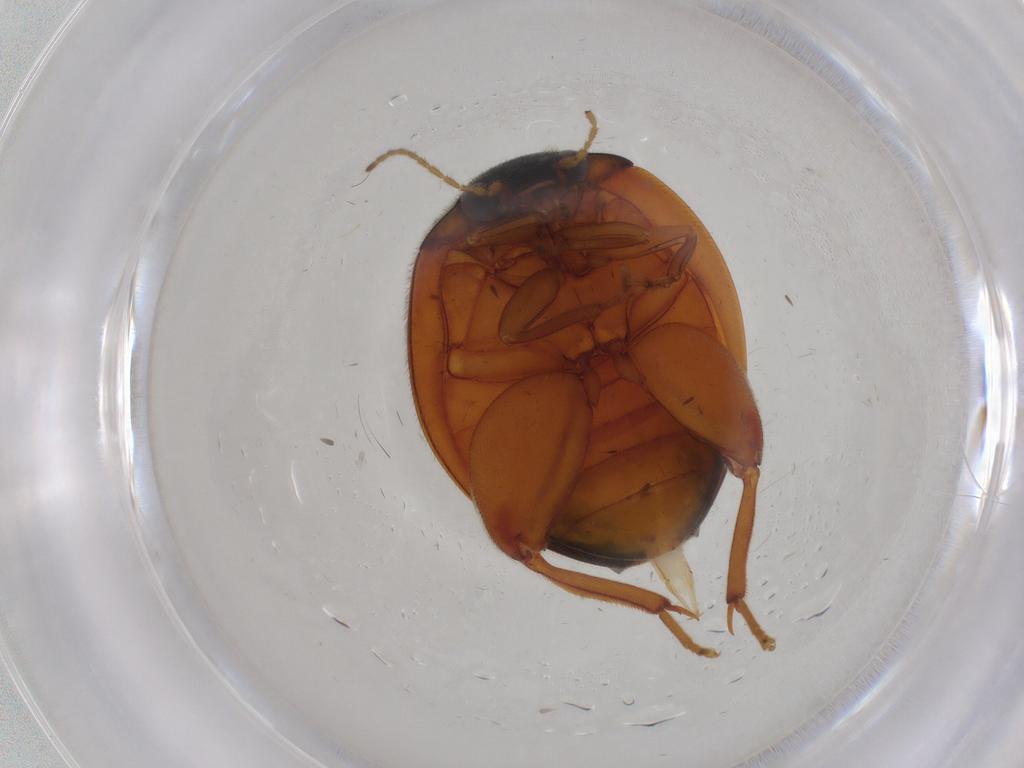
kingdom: Animalia
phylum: Arthropoda
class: Insecta
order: Coleoptera
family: Scirtidae
